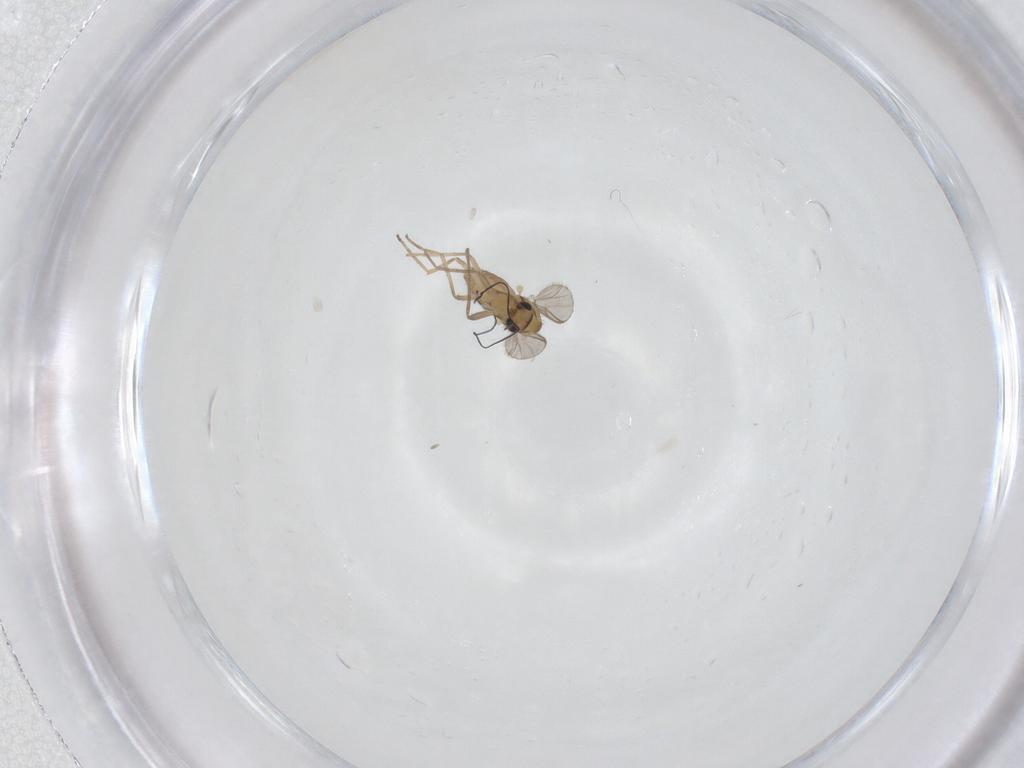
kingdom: Animalia
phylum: Arthropoda
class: Insecta
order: Diptera
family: Chironomidae
